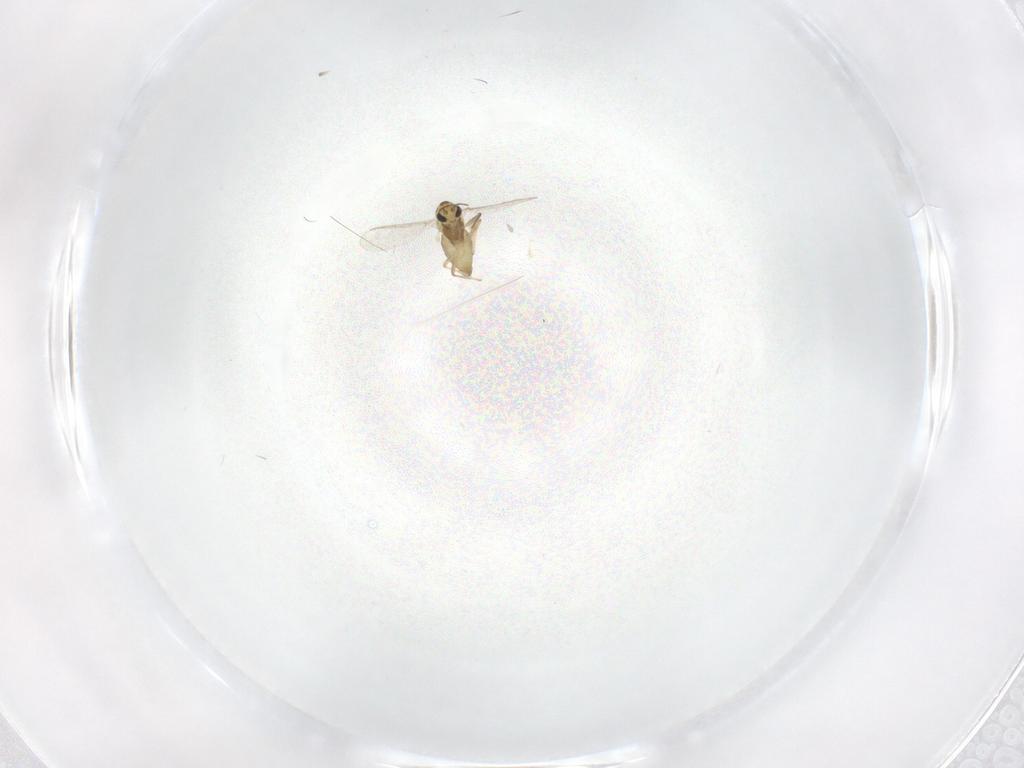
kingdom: Animalia
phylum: Arthropoda
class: Insecta
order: Diptera
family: Chironomidae
